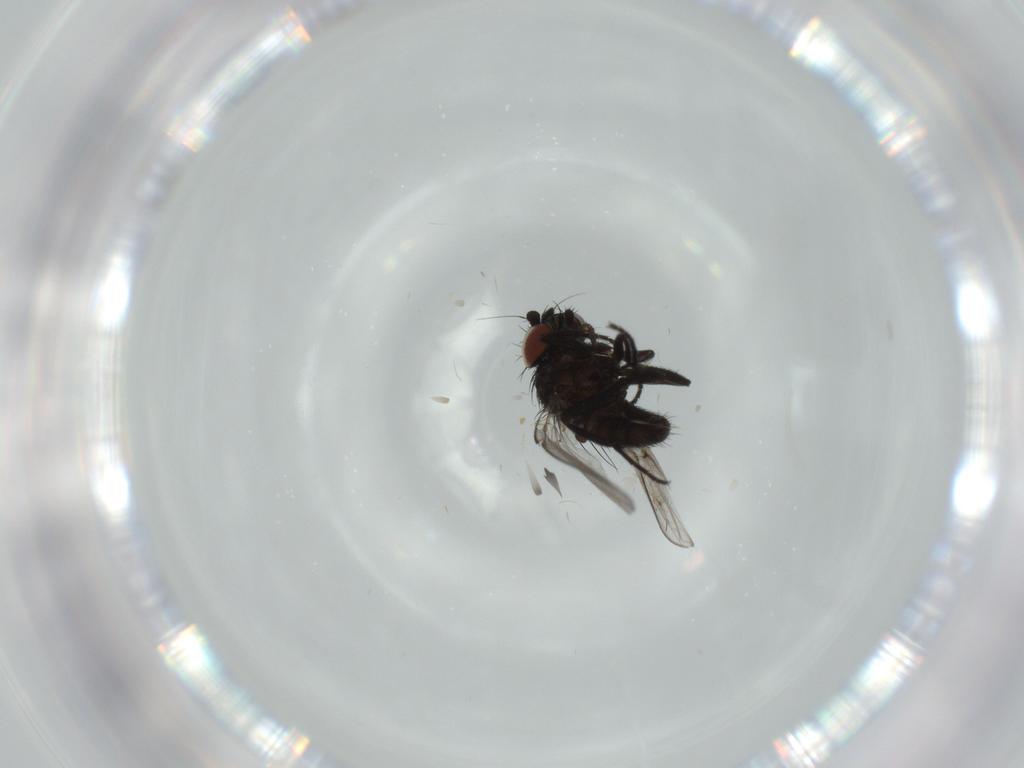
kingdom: Animalia
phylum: Arthropoda
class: Insecta
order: Diptera
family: Milichiidae
